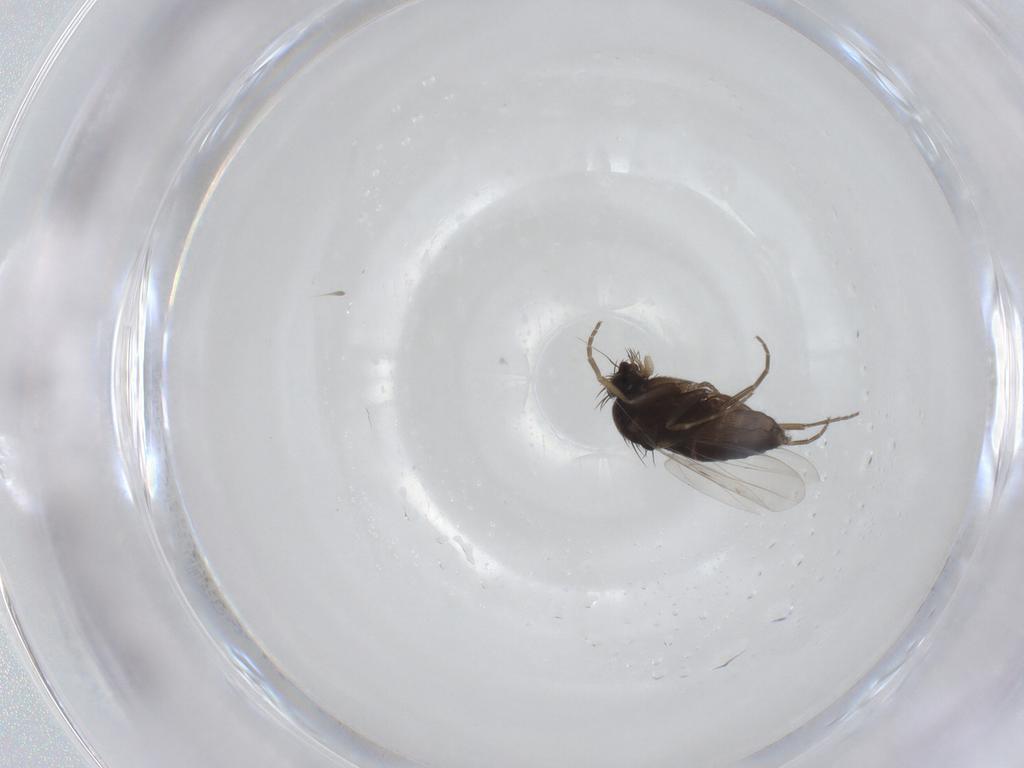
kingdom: Animalia
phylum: Arthropoda
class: Insecta
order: Diptera
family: Phoridae
